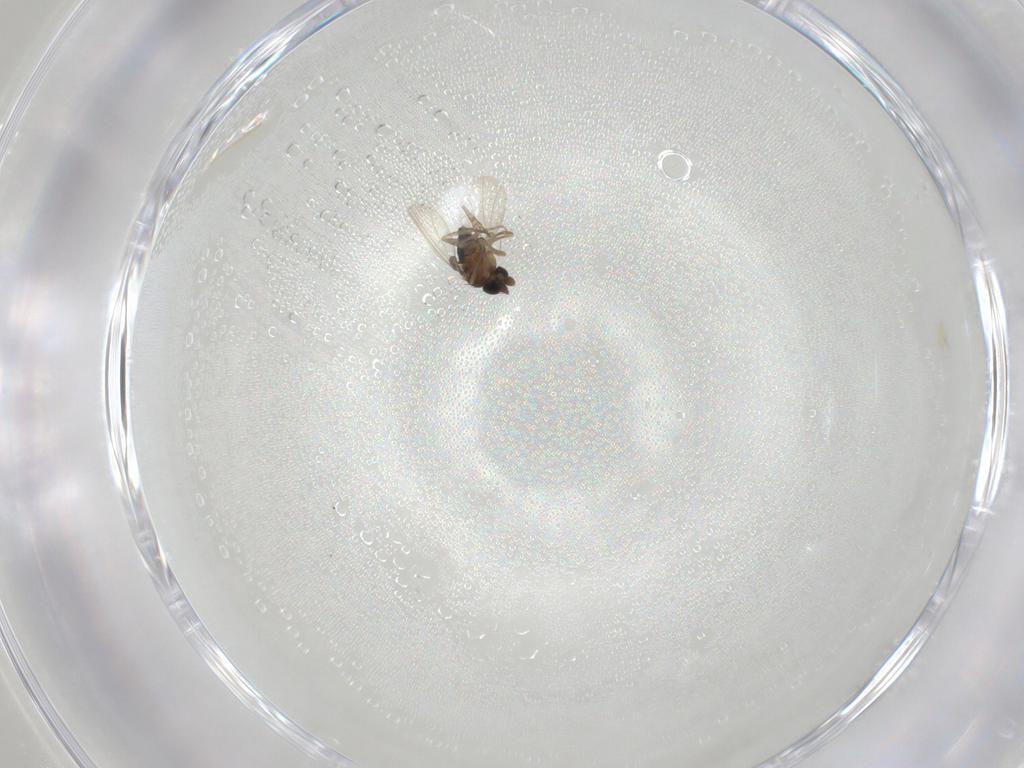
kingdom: Animalia
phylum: Arthropoda
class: Insecta
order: Diptera
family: Phoridae
